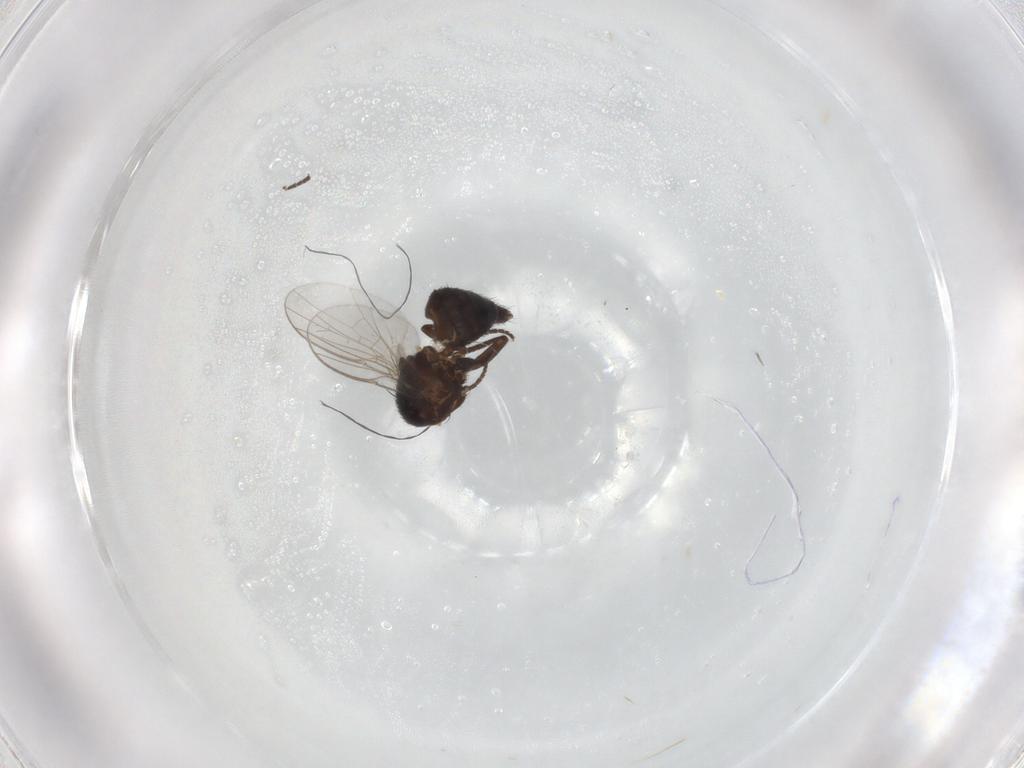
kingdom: Animalia
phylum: Arthropoda
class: Insecta
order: Diptera
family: Agromyzidae
